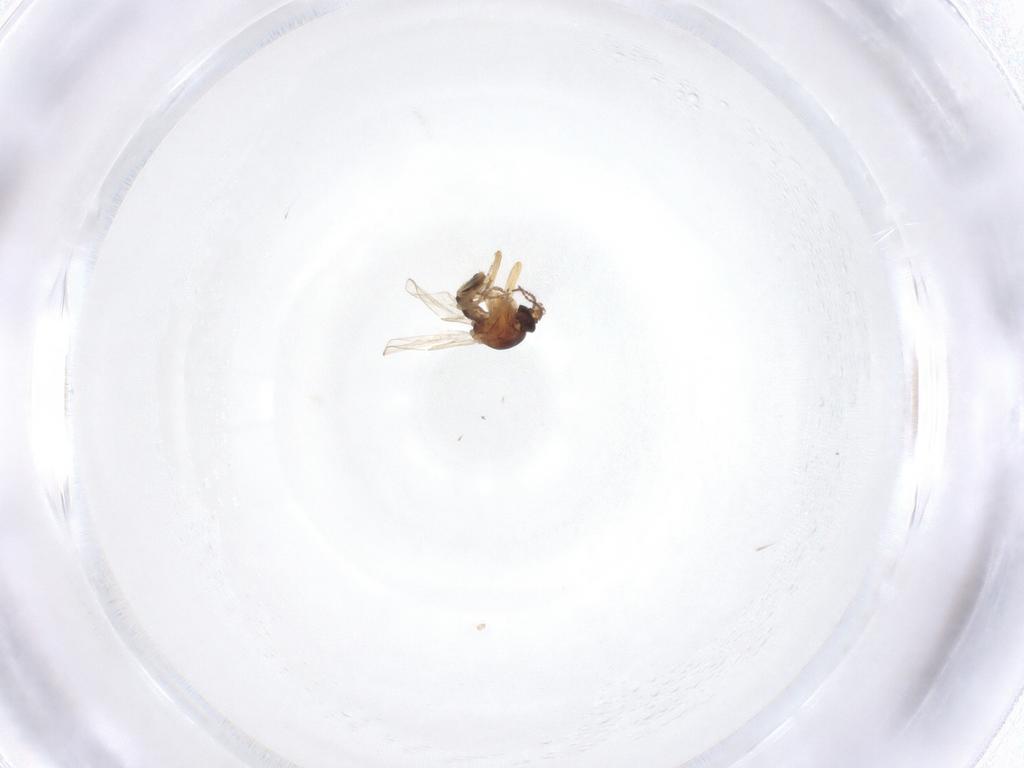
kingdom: Animalia
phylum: Arthropoda
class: Insecta
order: Diptera
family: Ceratopogonidae
